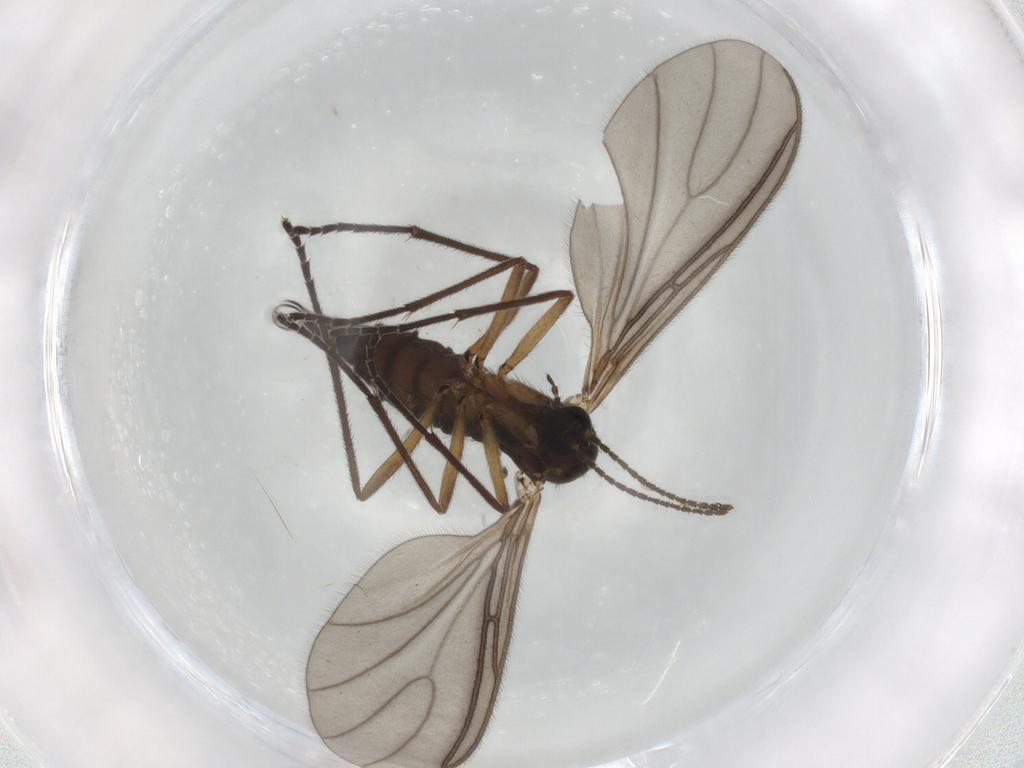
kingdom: Animalia
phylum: Arthropoda
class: Insecta
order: Diptera
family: Sciaridae
